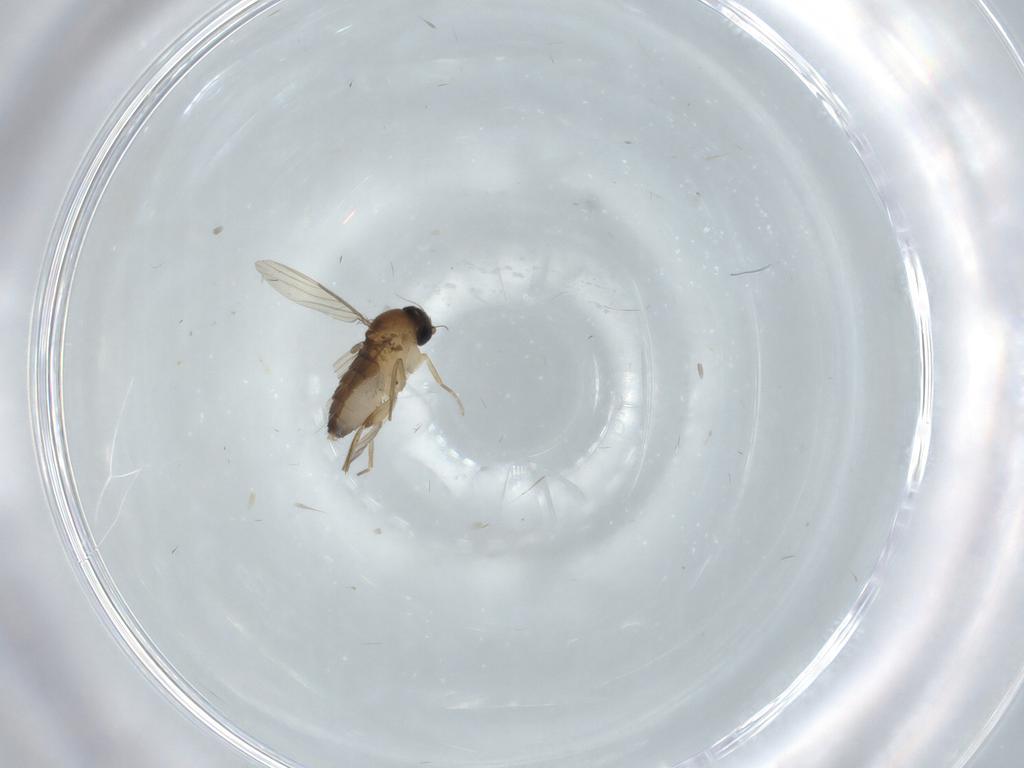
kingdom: Animalia
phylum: Arthropoda
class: Insecta
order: Diptera
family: Phoridae
